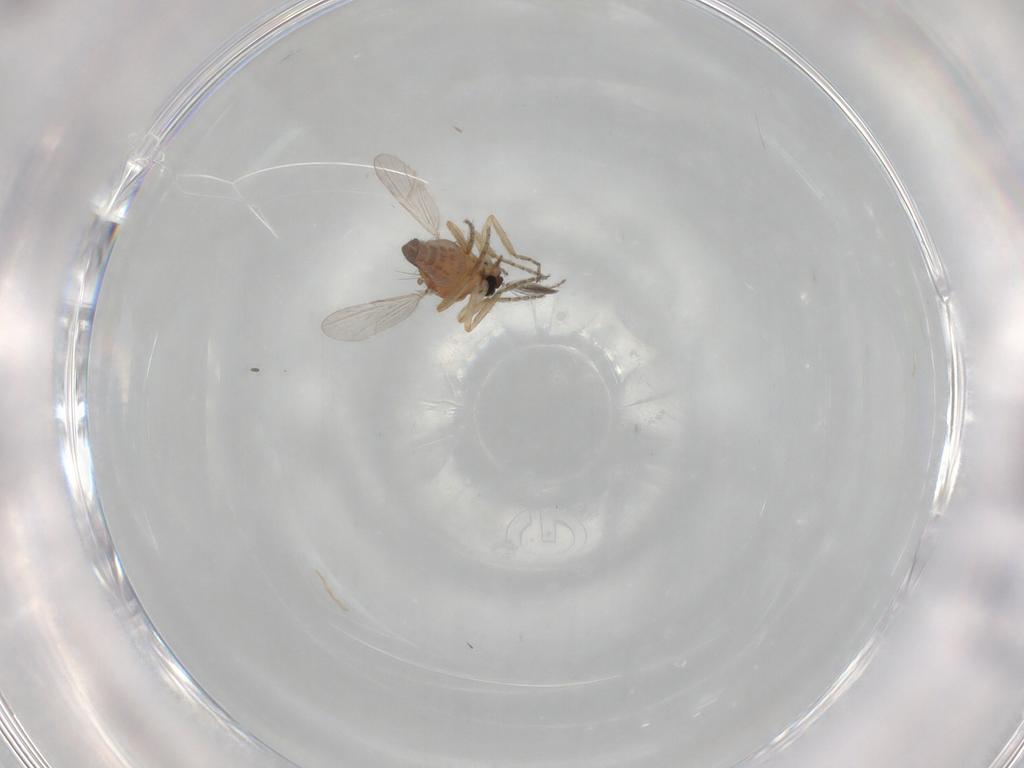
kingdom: Animalia
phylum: Arthropoda
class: Insecta
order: Diptera
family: Ceratopogonidae
